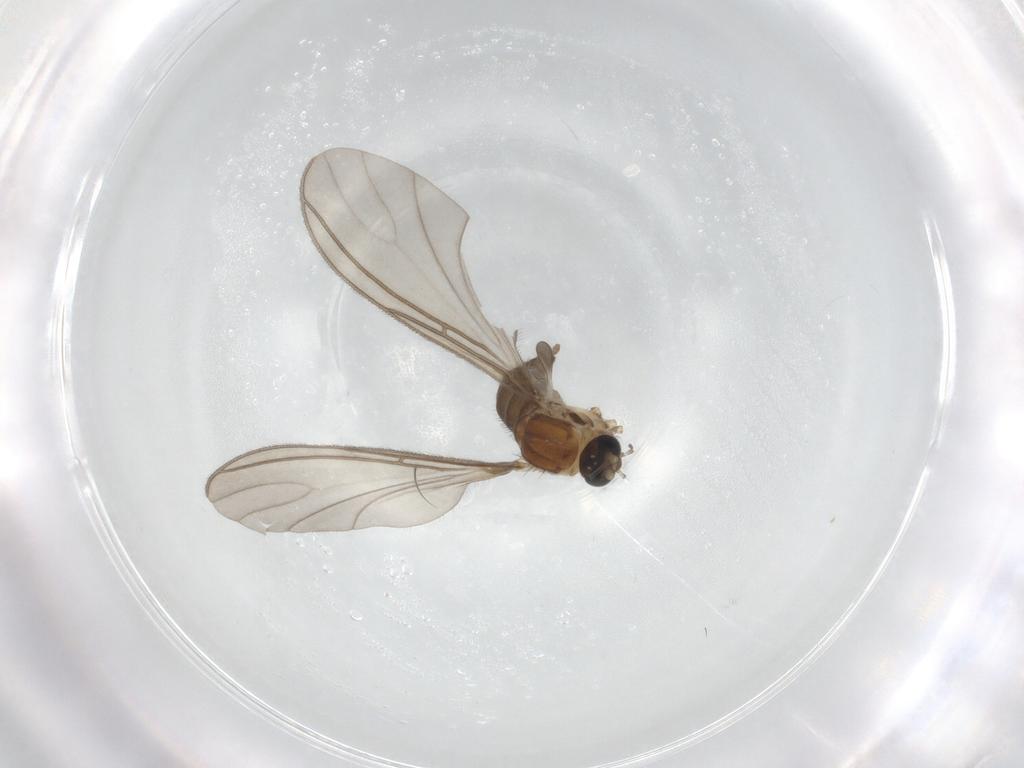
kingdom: Animalia
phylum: Arthropoda
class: Insecta
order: Diptera
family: Sciaridae
